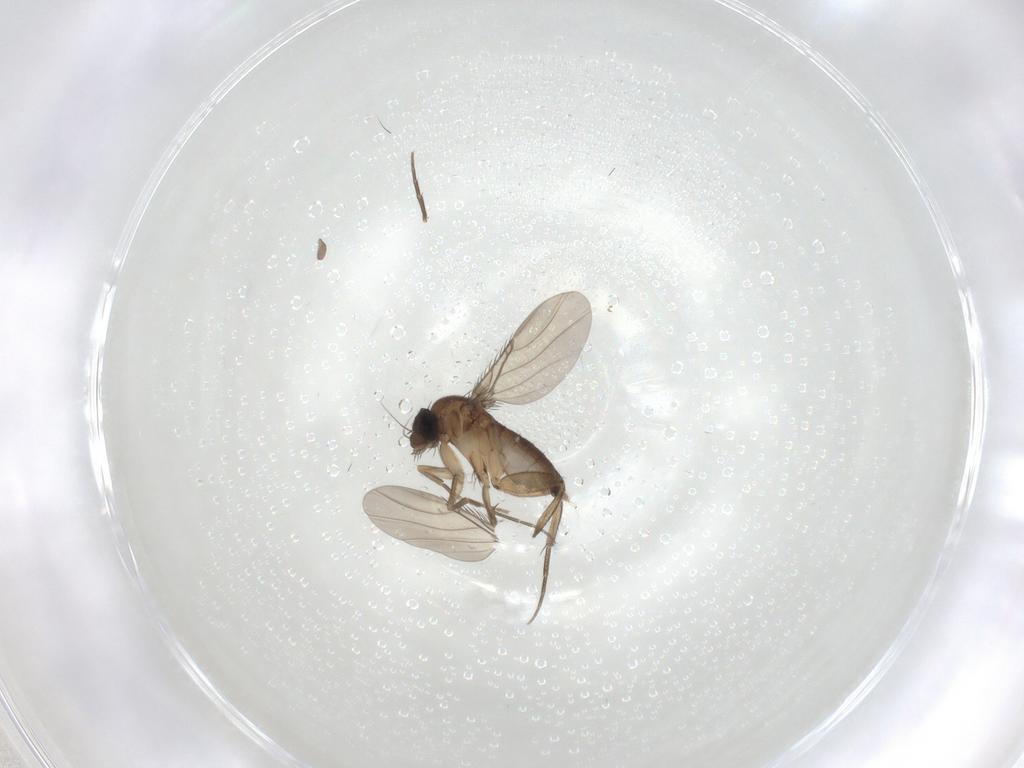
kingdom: Animalia
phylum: Arthropoda
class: Insecta
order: Diptera
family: Phoridae
